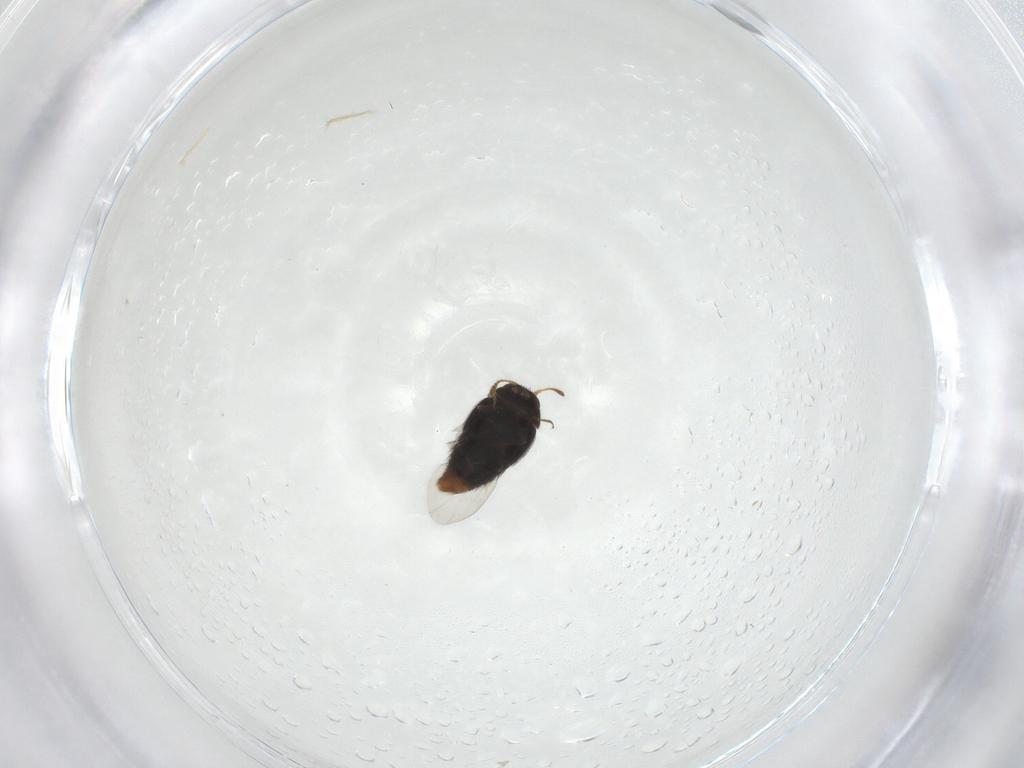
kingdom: Animalia
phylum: Arthropoda
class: Insecta
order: Coleoptera
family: Staphylinidae
